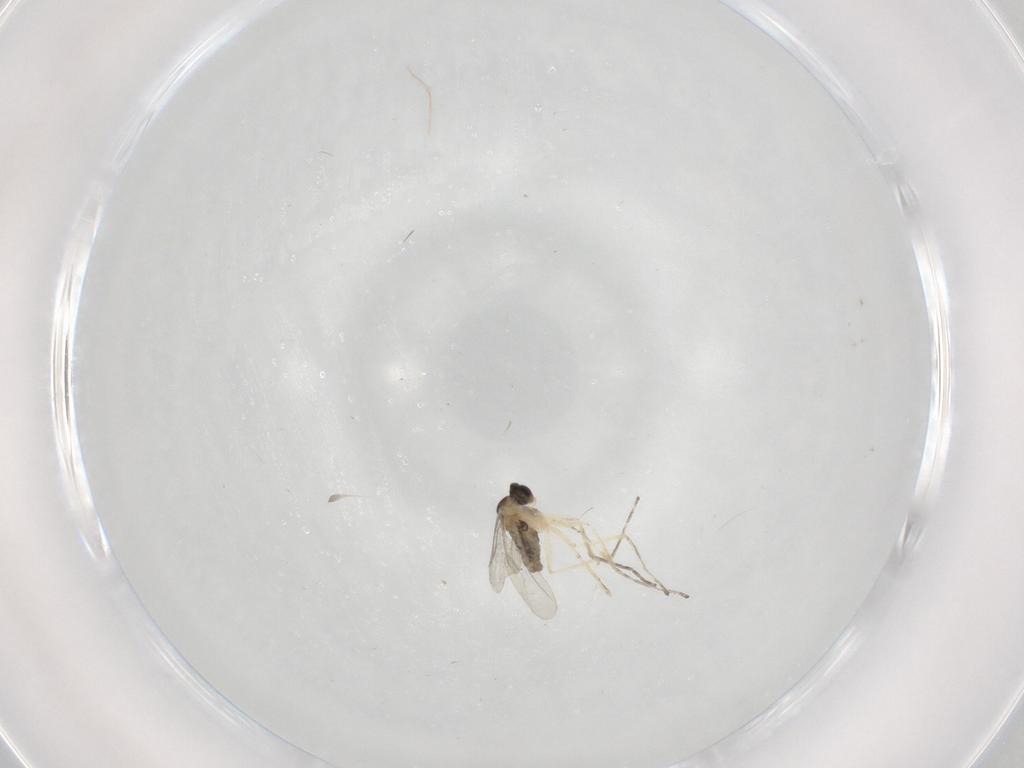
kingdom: Animalia
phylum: Arthropoda
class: Insecta
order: Diptera
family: Cecidomyiidae
